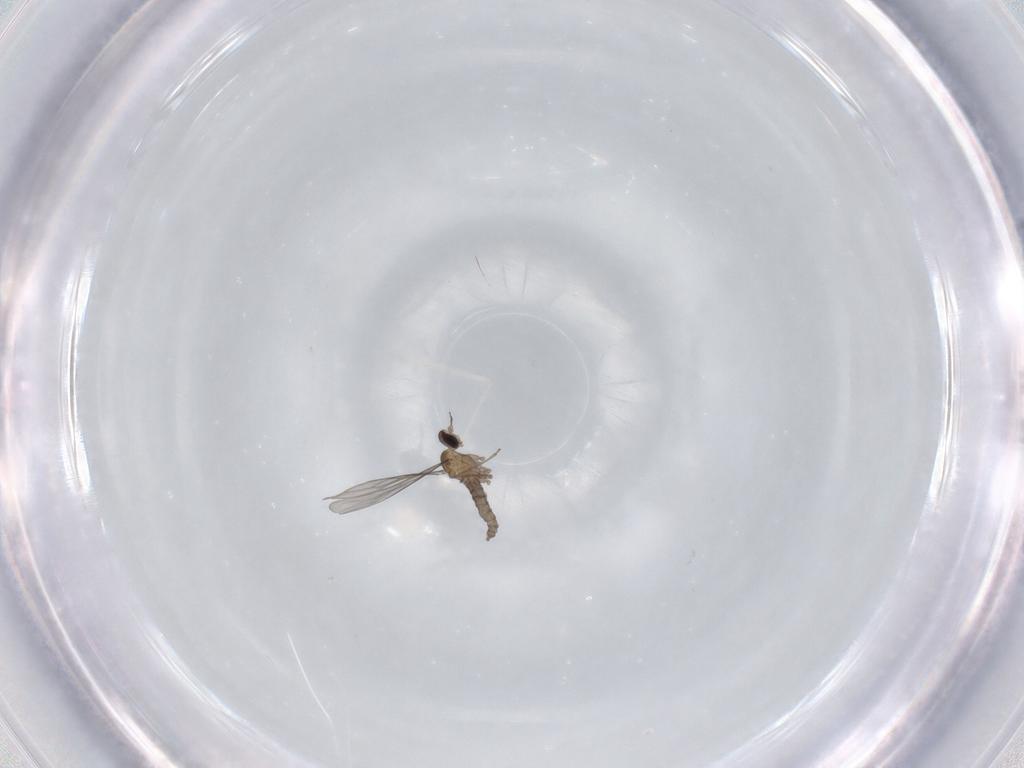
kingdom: Animalia
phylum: Arthropoda
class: Insecta
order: Diptera
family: Cecidomyiidae
